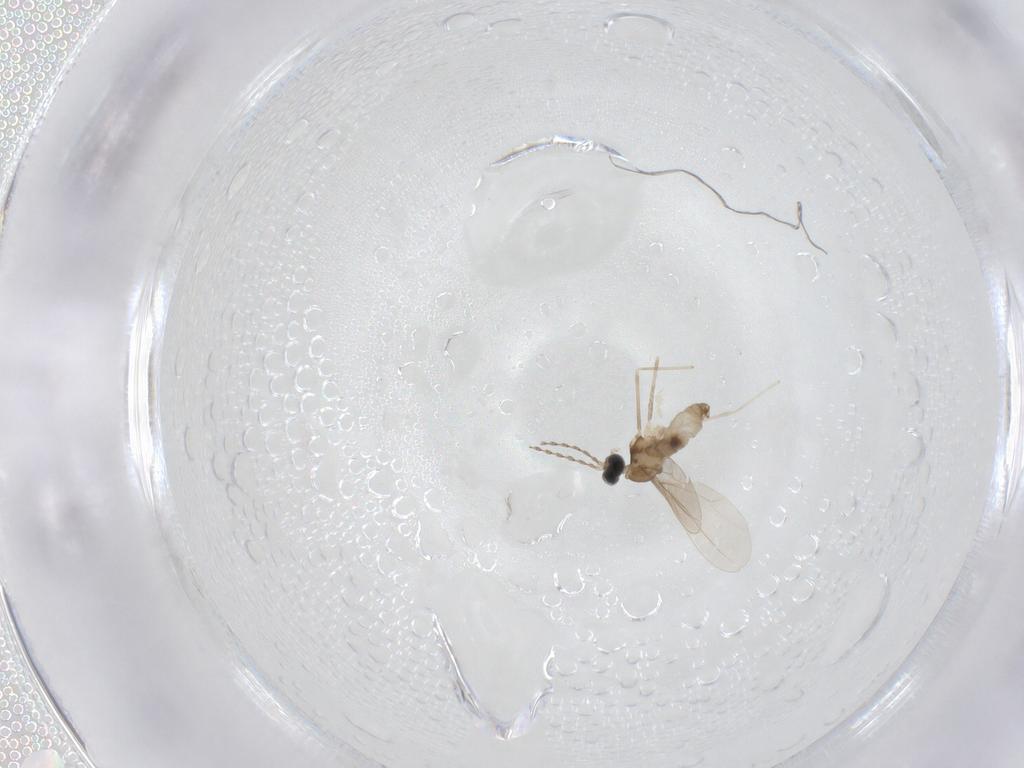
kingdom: Animalia
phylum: Arthropoda
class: Insecta
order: Diptera
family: Cecidomyiidae
